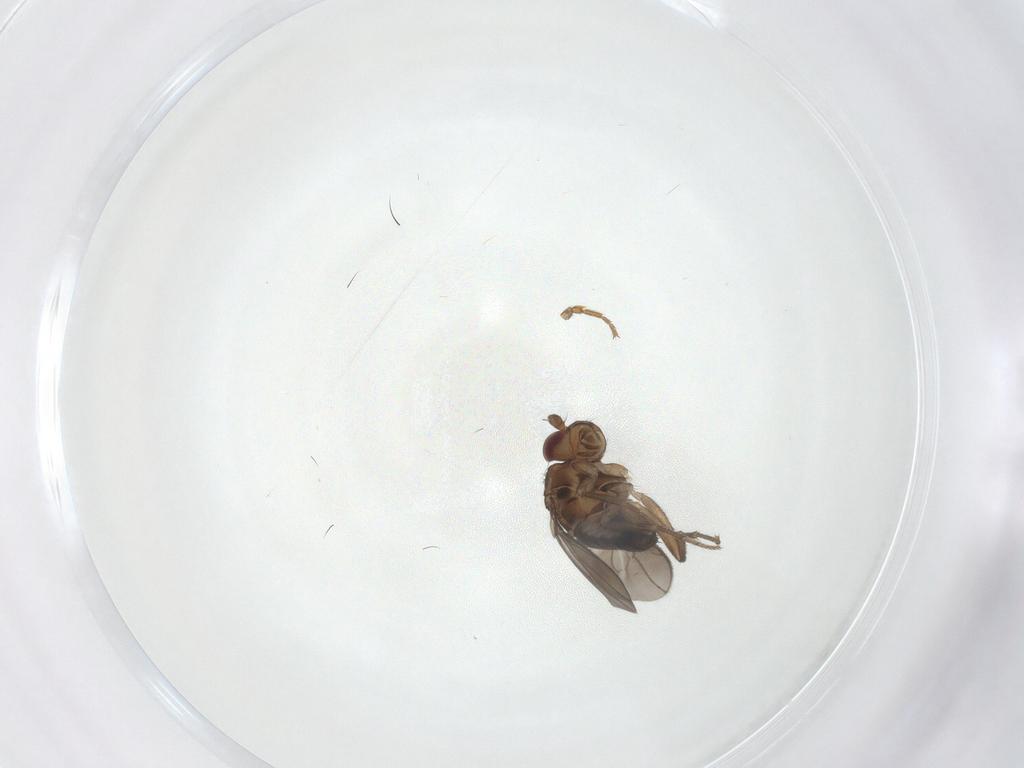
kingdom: Animalia
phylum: Arthropoda
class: Insecta
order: Diptera
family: Sphaeroceridae
